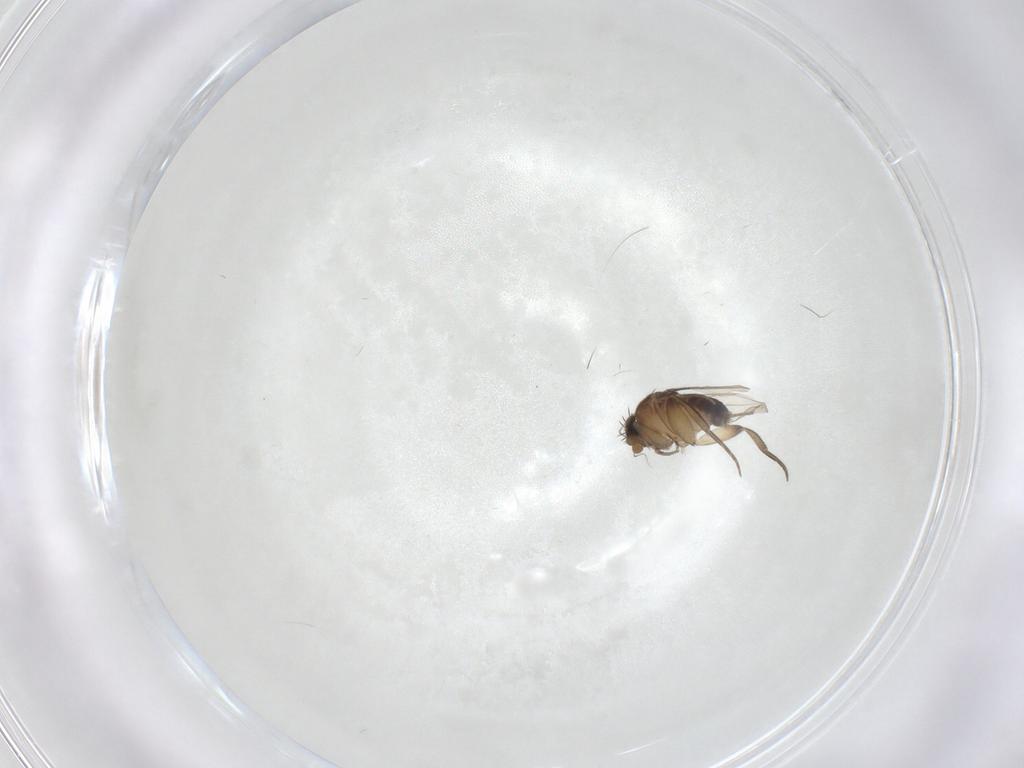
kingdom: Animalia
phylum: Arthropoda
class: Insecta
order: Diptera
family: Phoridae
